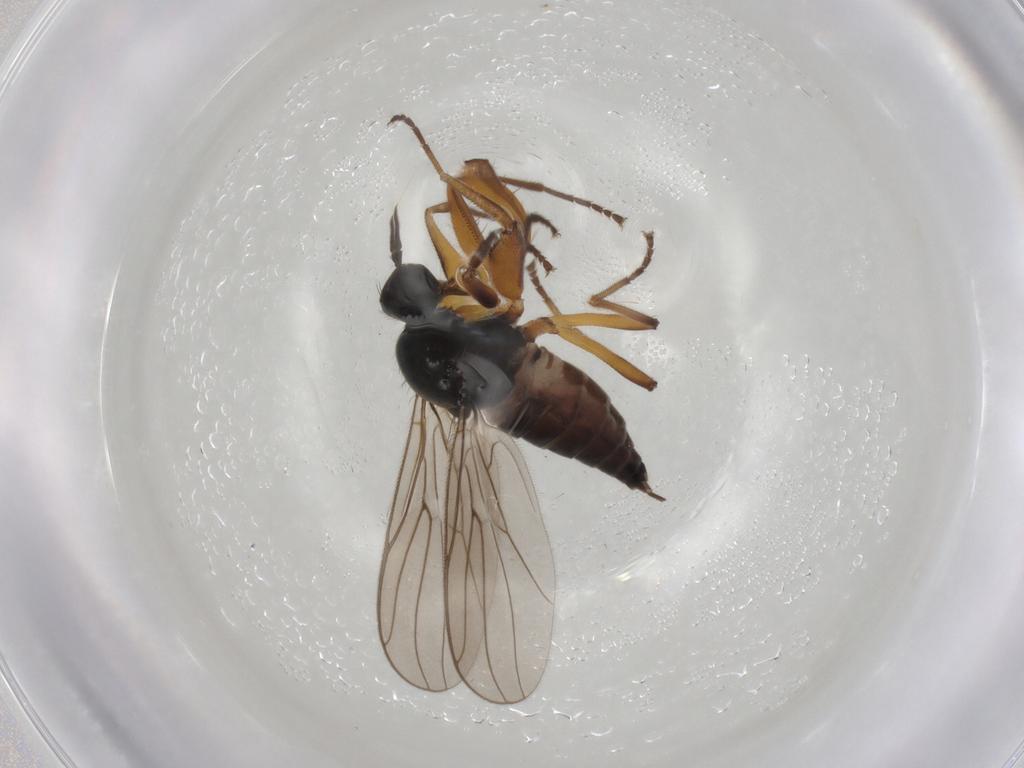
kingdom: Animalia
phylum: Arthropoda
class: Insecta
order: Diptera
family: Hybotidae
